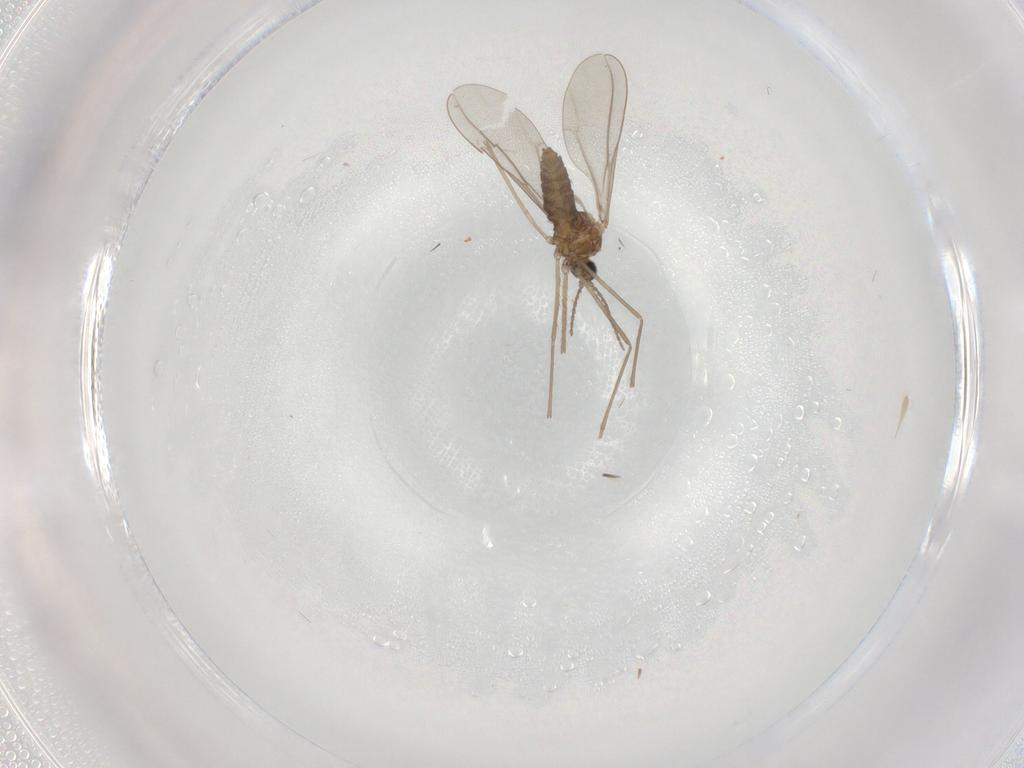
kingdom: Animalia
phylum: Arthropoda
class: Insecta
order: Diptera
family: Cecidomyiidae
